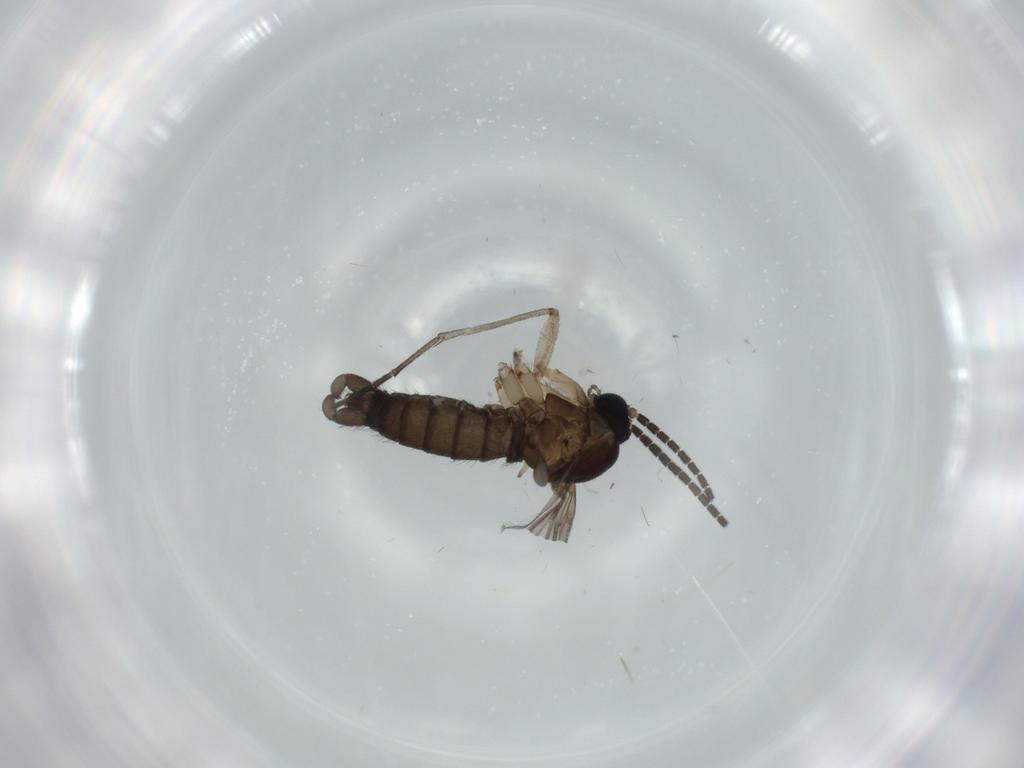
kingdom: Animalia
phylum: Arthropoda
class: Insecta
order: Diptera
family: Sciaridae
